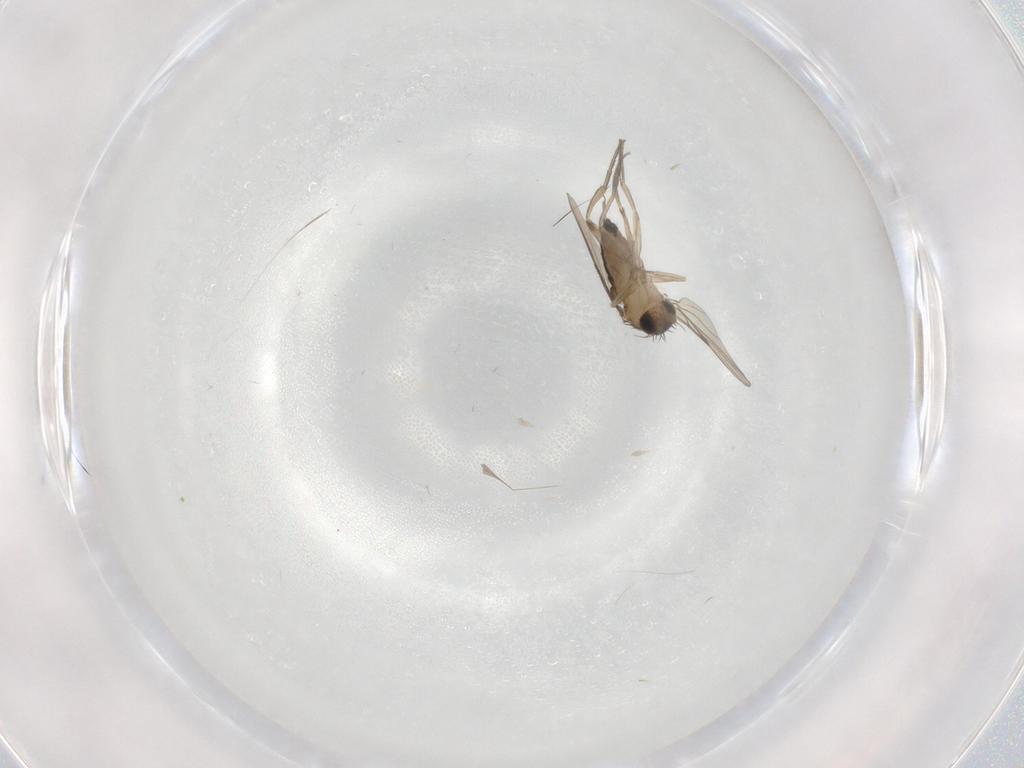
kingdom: Animalia
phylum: Arthropoda
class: Insecta
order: Diptera
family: Phoridae
